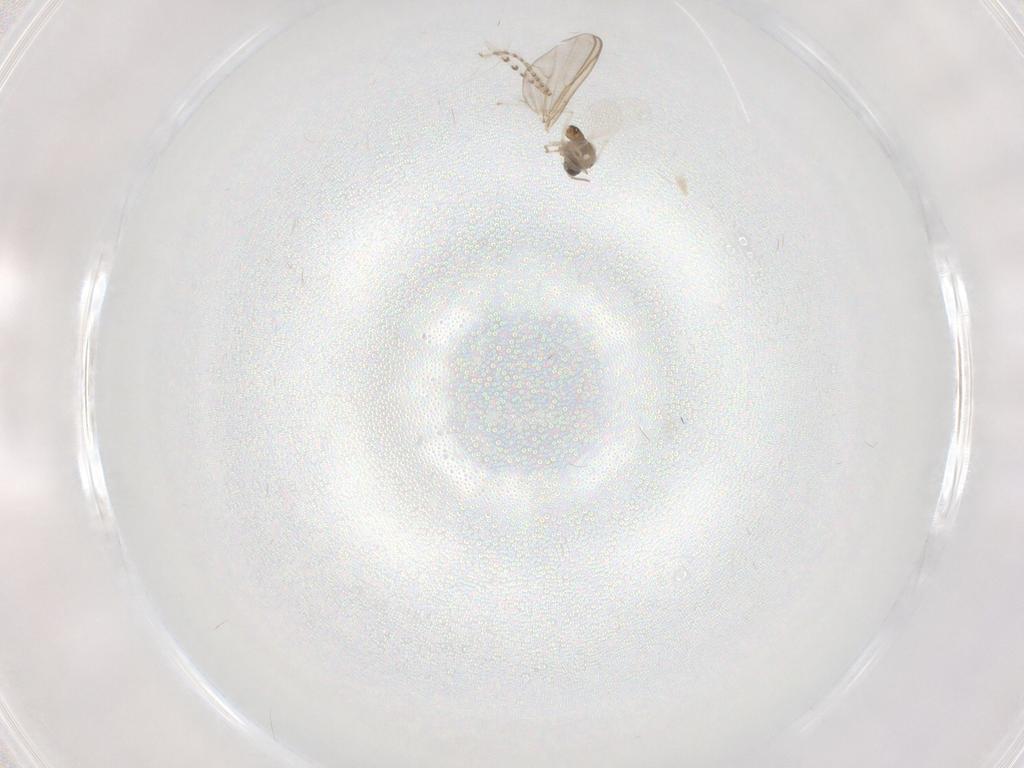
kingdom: Animalia
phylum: Arthropoda
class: Insecta
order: Diptera
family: Chaoboridae
